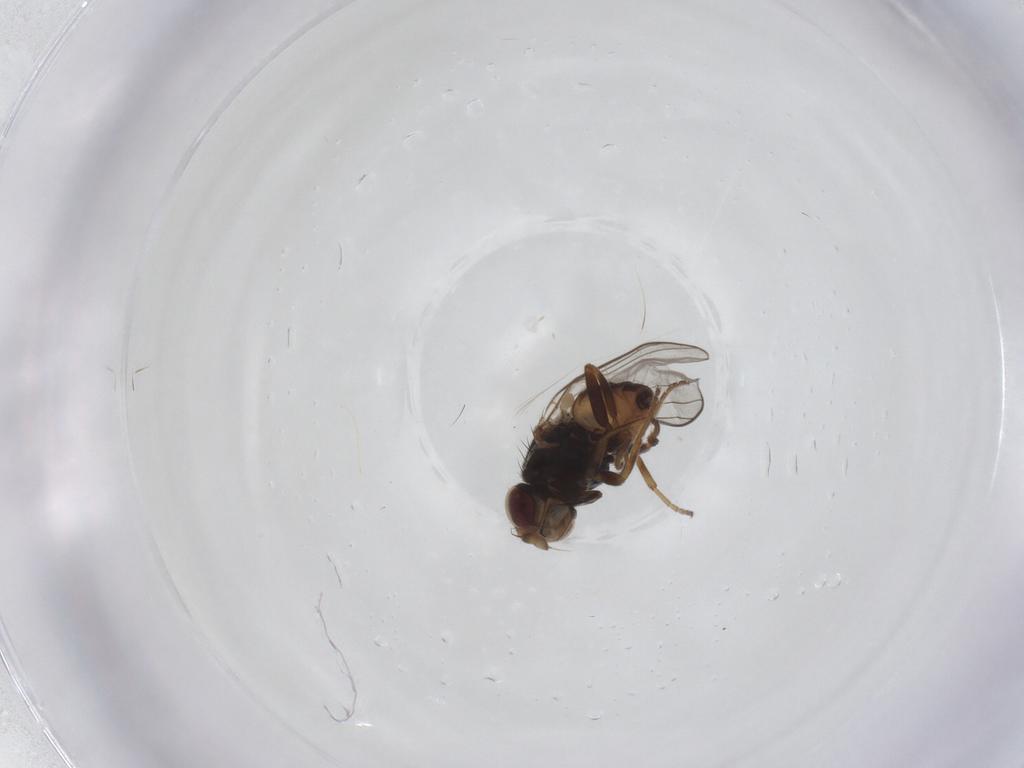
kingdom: Animalia
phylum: Arthropoda
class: Insecta
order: Diptera
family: Chloropidae
